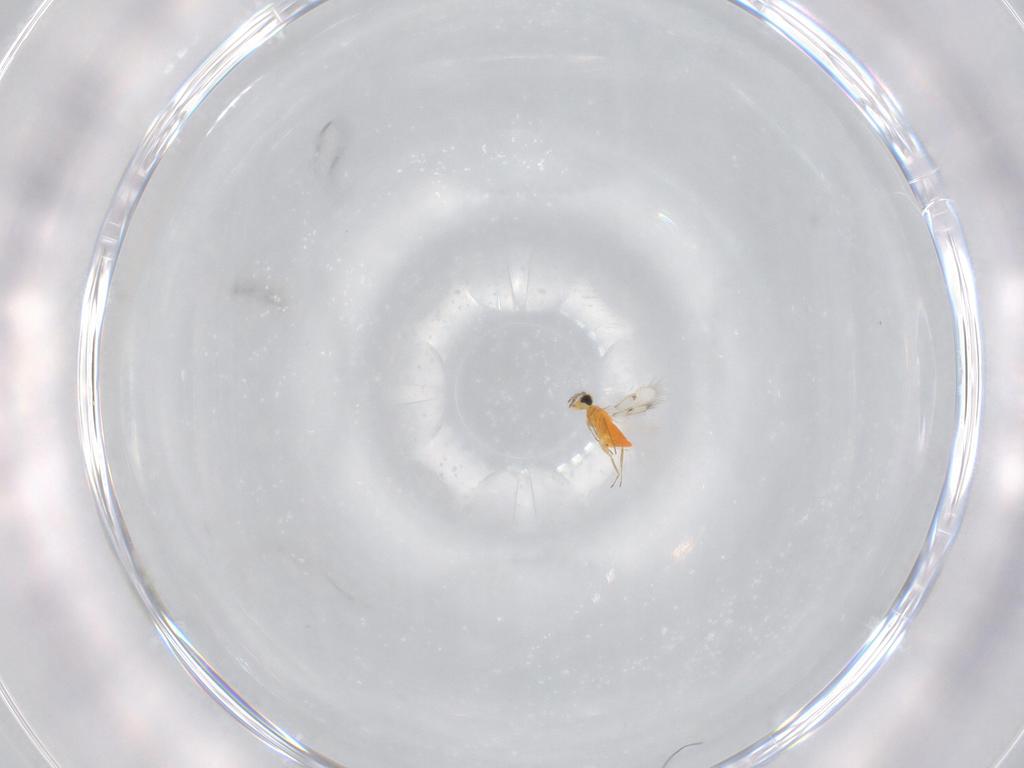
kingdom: Animalia
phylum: Arthropoda
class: Insecta
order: Hymenoptera
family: Trichogrammatidae
